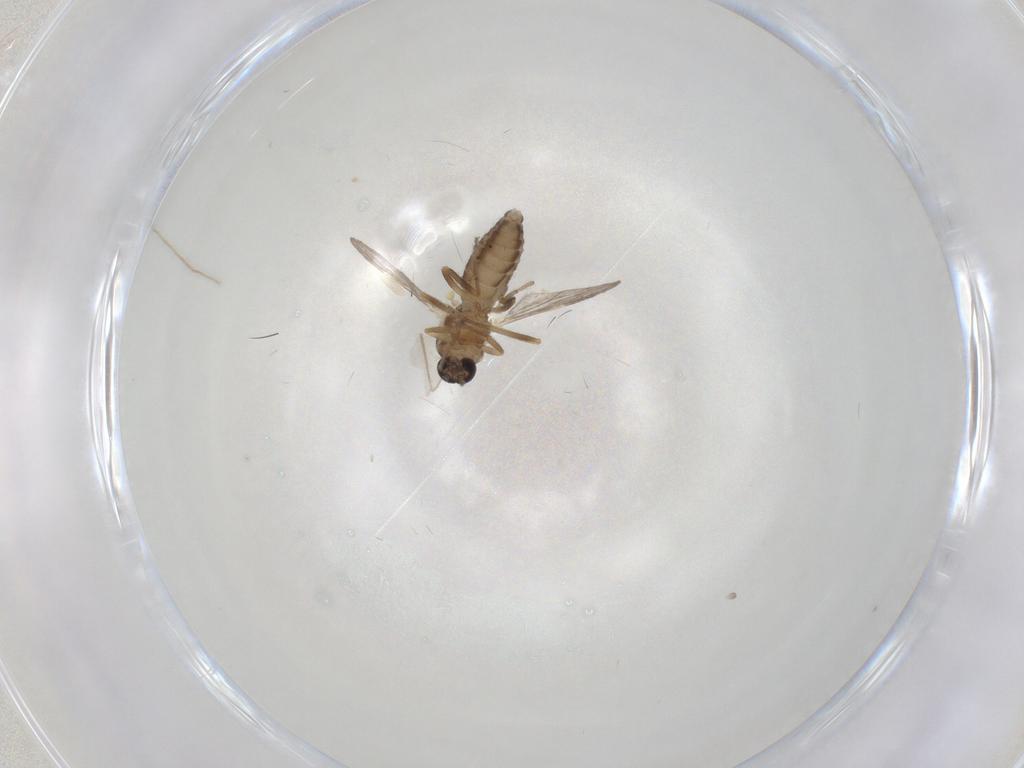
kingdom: Animalia
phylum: Arthropoda
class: Insecta
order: Diptera
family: Ceratopogonidae
